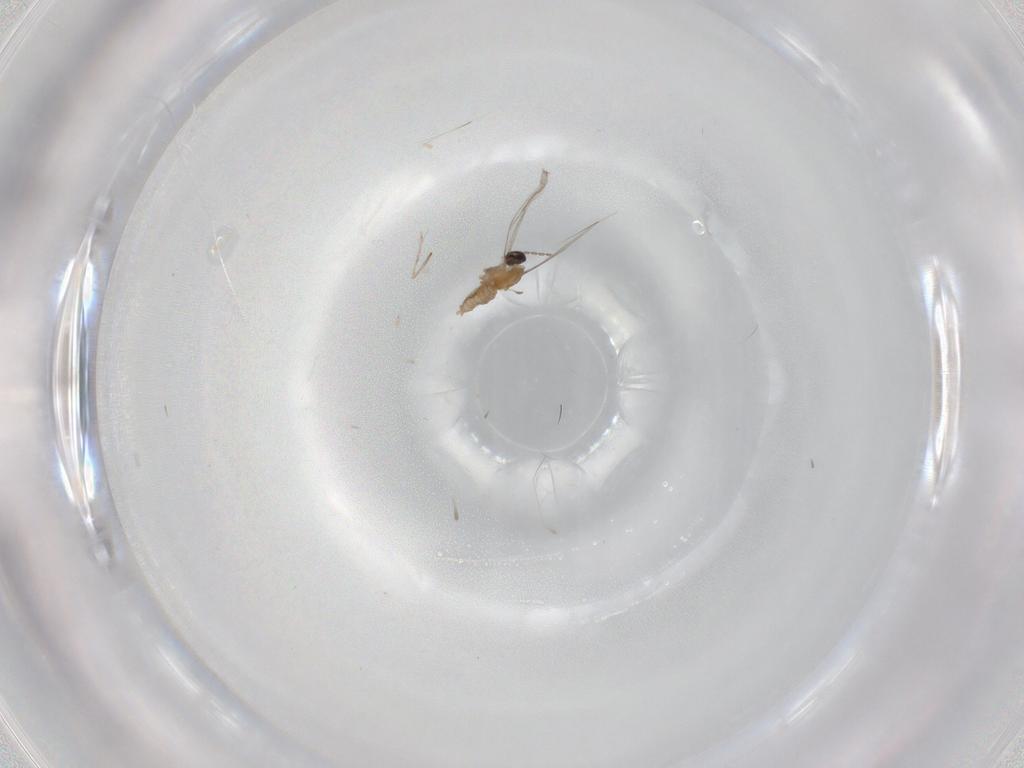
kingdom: Animalia
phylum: Arthropoda
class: Insecta
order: Diptera
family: Cecidomyiidae
